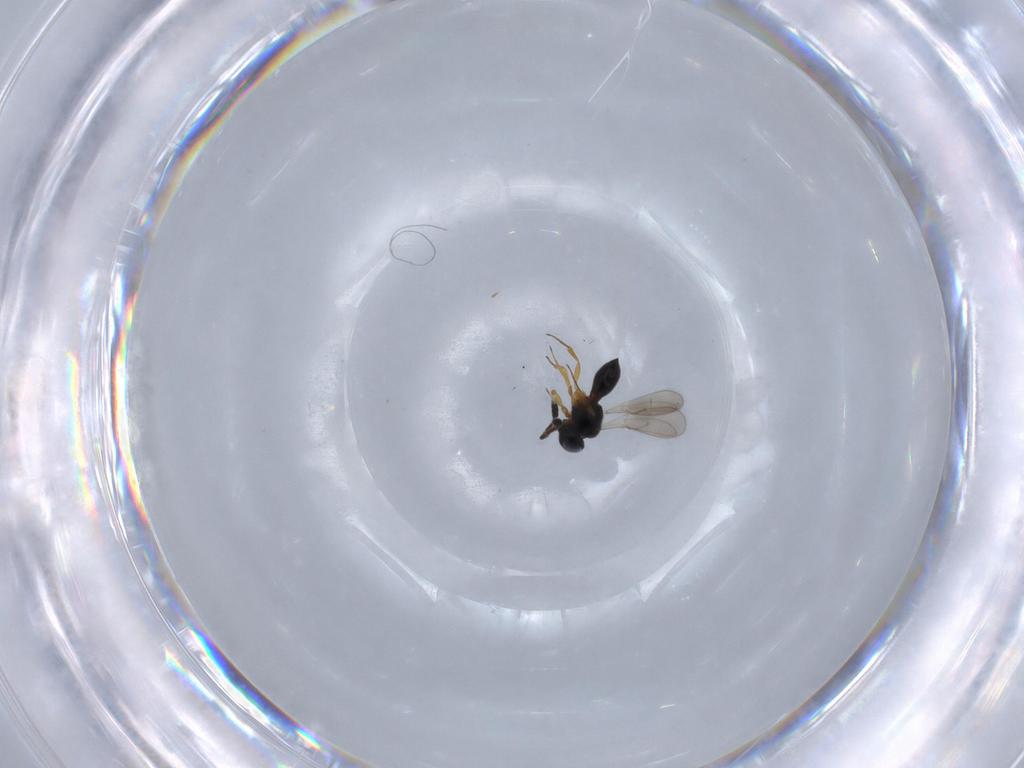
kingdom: Animalia
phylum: Arthropoda
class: Insecta
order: Hymenoptera
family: Scelionidae
